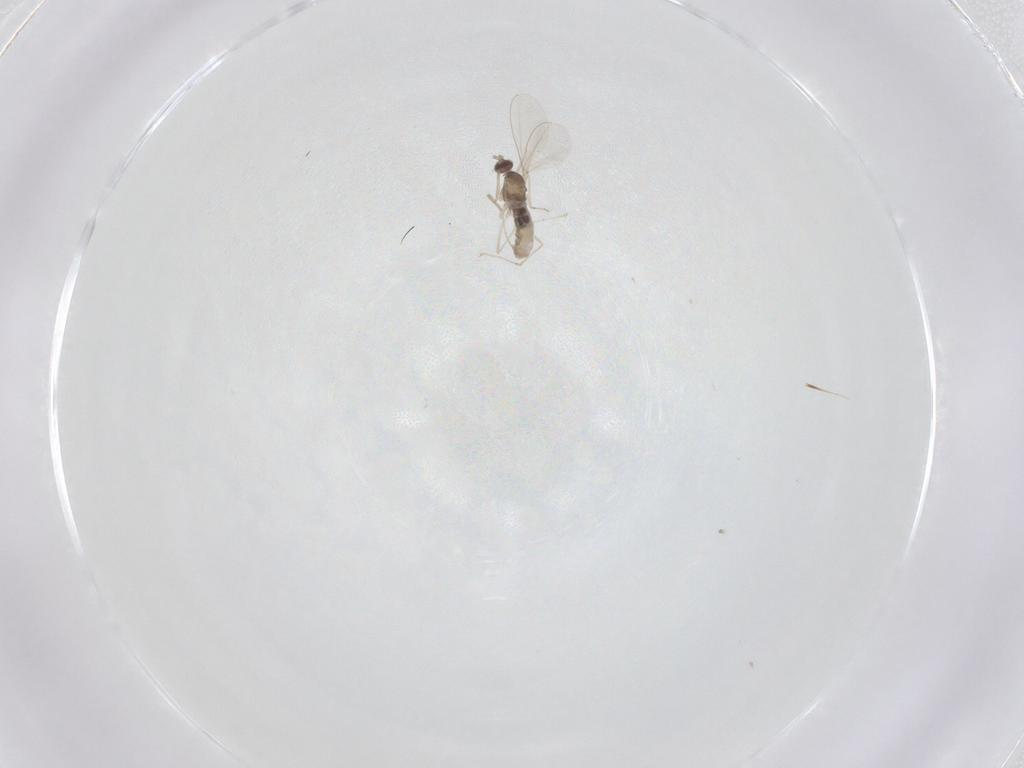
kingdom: Animalia
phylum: Arthropoda
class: Insecta
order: Diptera
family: Cecidomyiidae
